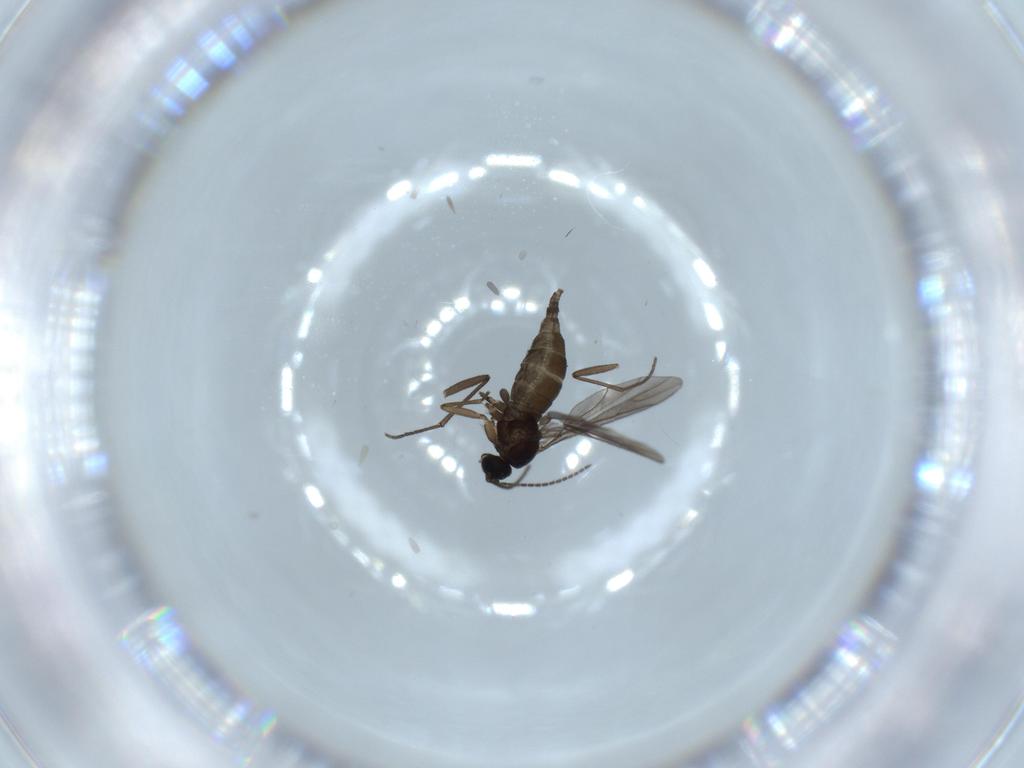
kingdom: Animalia
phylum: Arthropoda
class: Insecta
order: Diptera
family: Sciaridae
